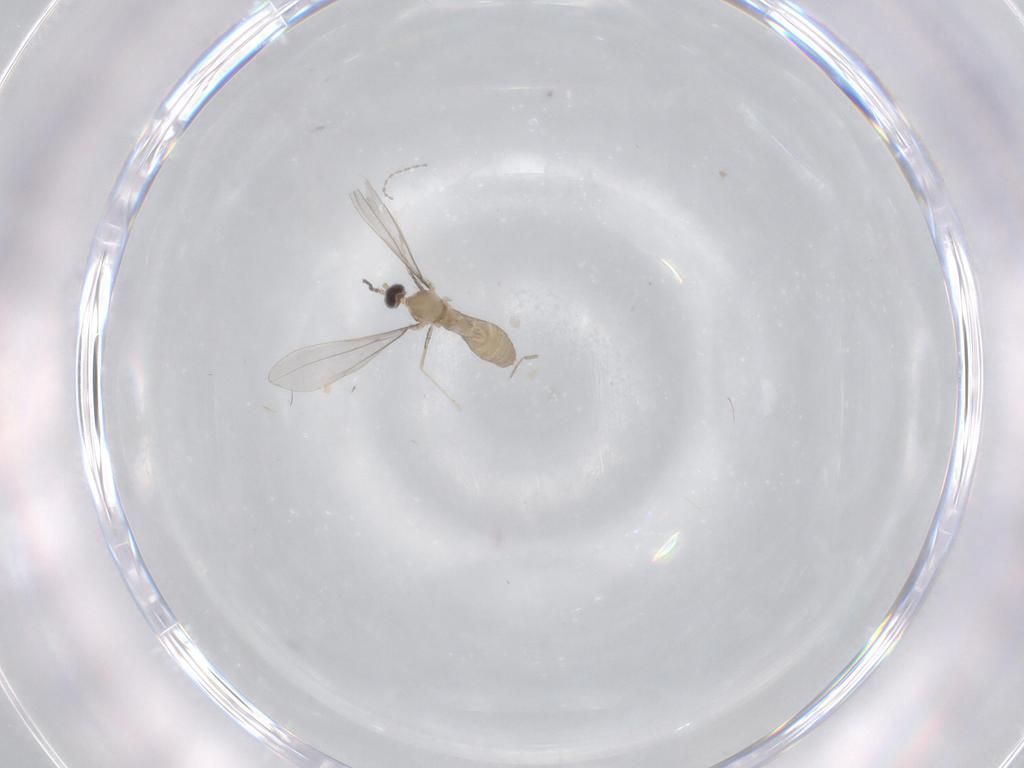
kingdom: Animalia
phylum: Arthropoda
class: Insecta
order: Diptera
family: Cecidomyiidae
